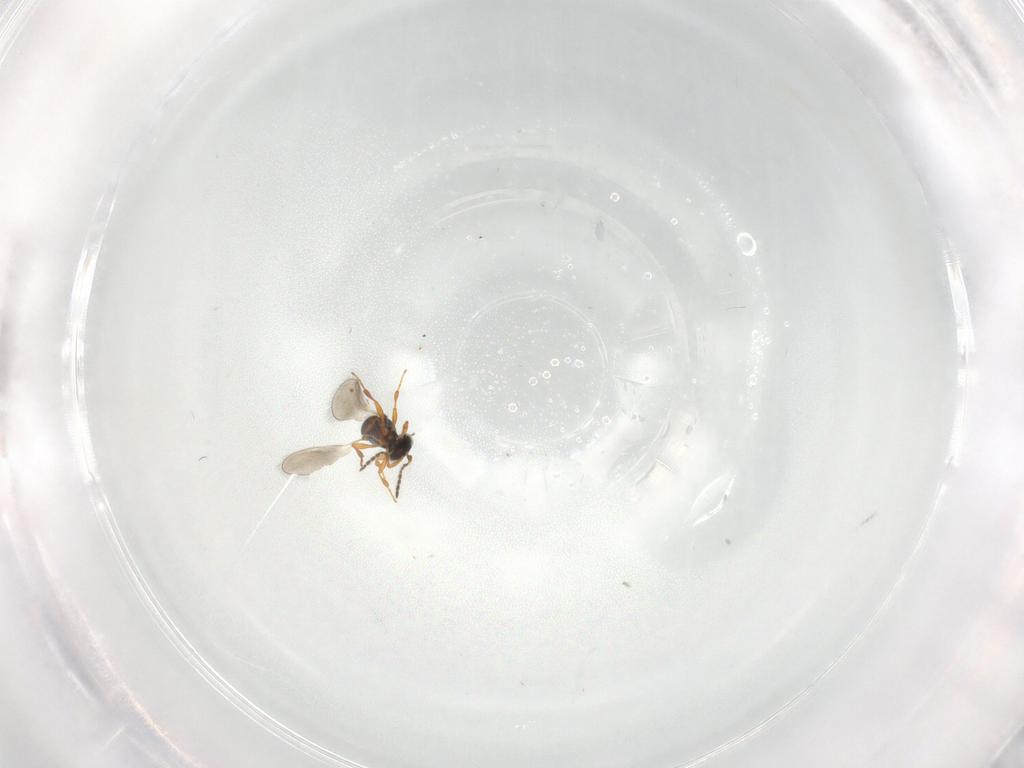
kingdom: Animalia
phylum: Arthropoda
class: Insecta
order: Hymenoptera
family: Platygastridae
